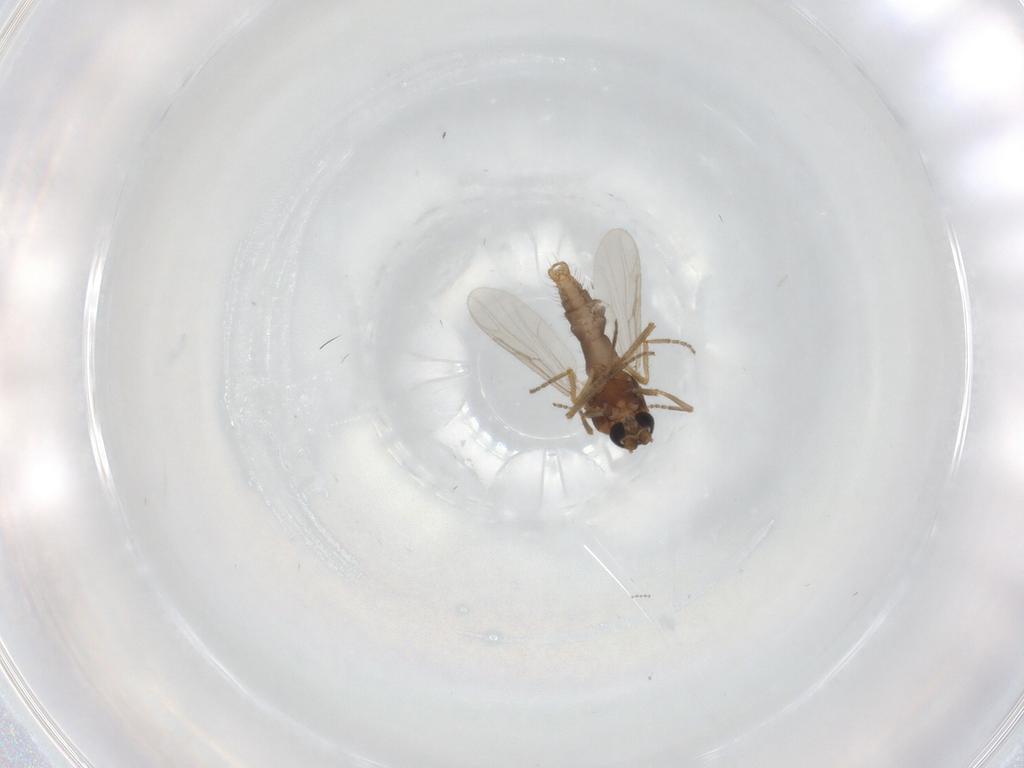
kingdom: Animalia
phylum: Arthropoda
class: Insecta
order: Diptera
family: Ceratopogonidae
